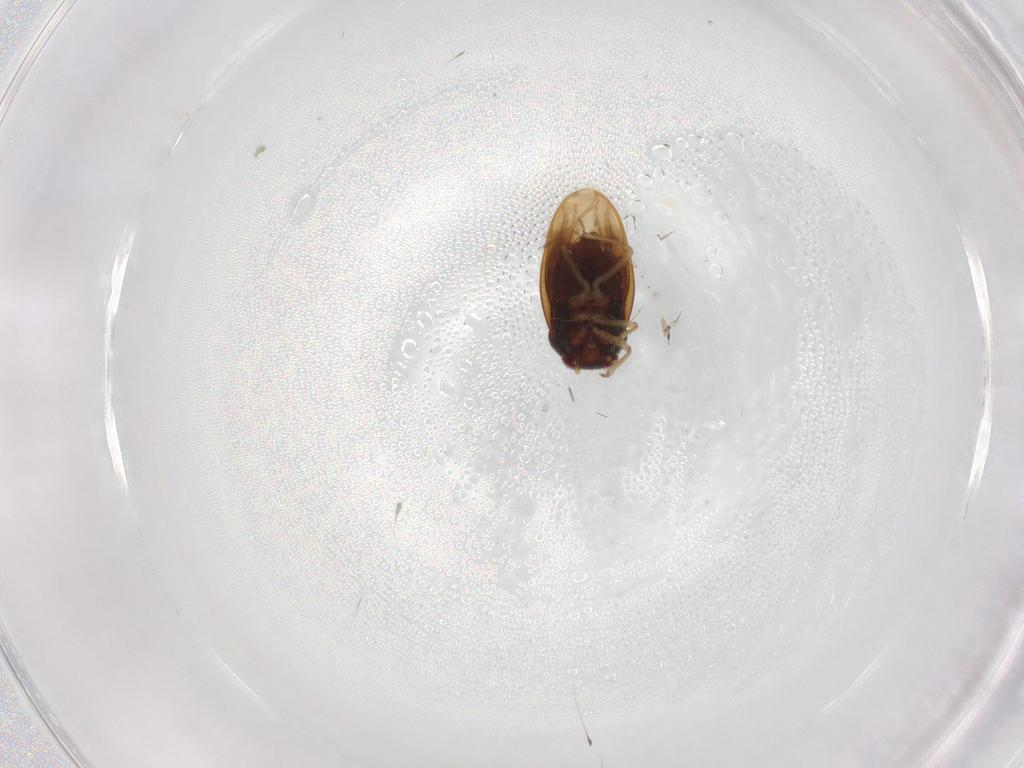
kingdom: Animalia
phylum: Arthropoda
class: Insecta
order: Hemiptera
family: Schizopteridae
